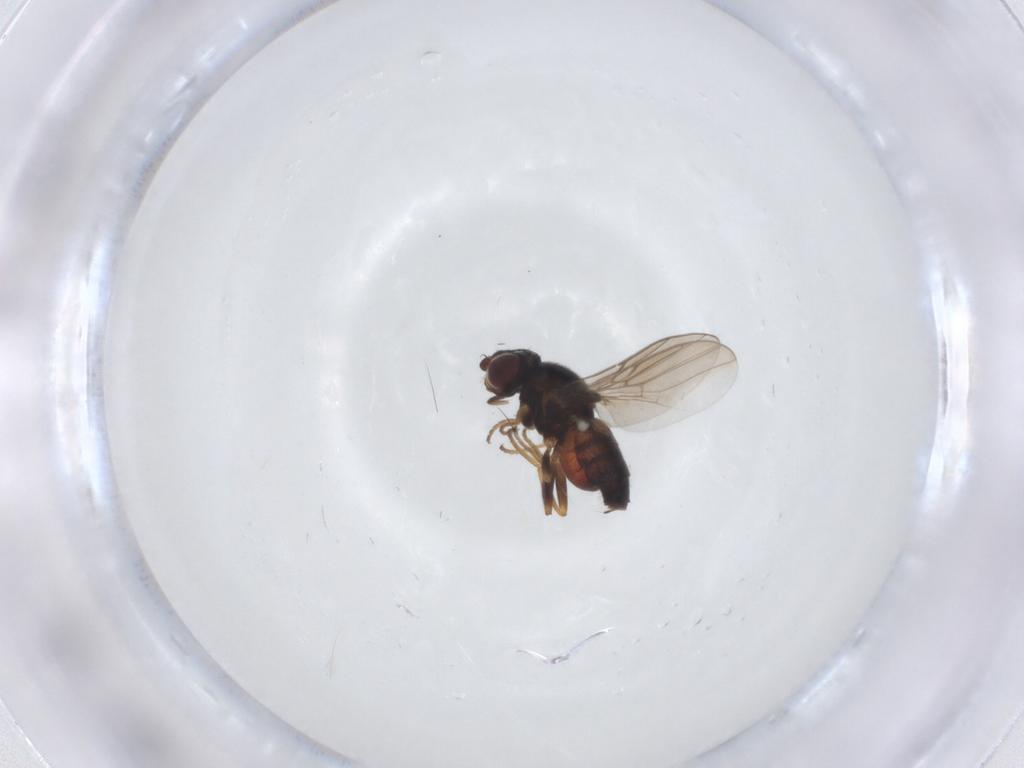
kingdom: Animalia
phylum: Arthropoda
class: Insecta
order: Diptera
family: Chloropidae
